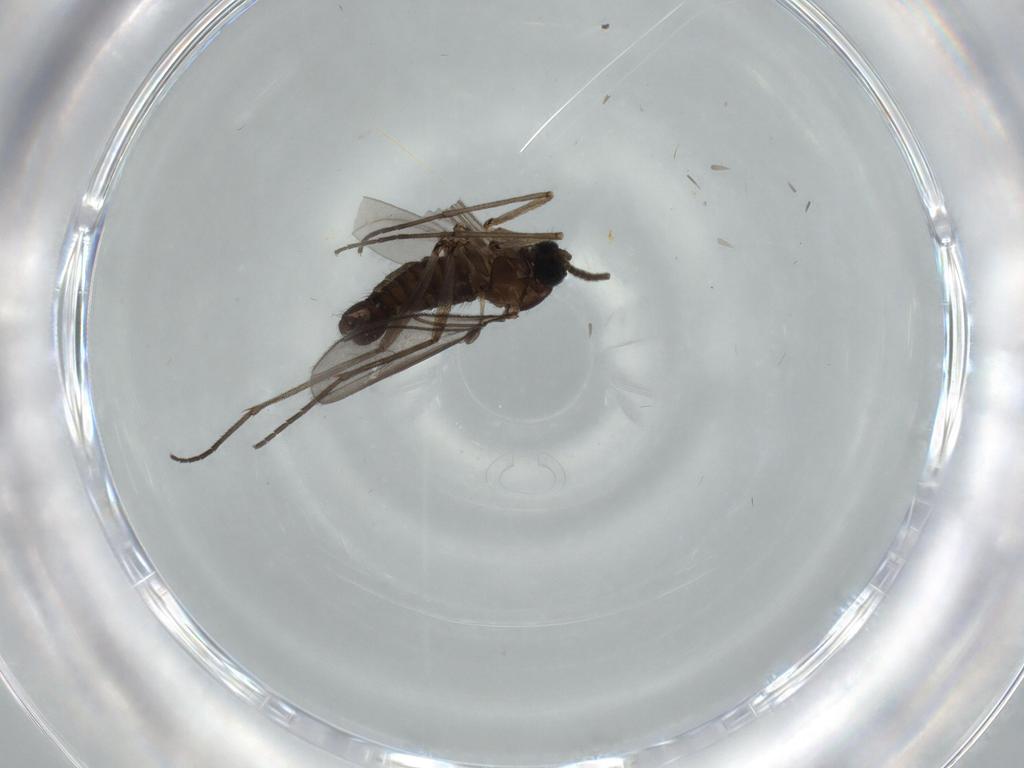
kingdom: Animalia
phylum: Arthropoda
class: Insecta
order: Diptera
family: Sciaridae
